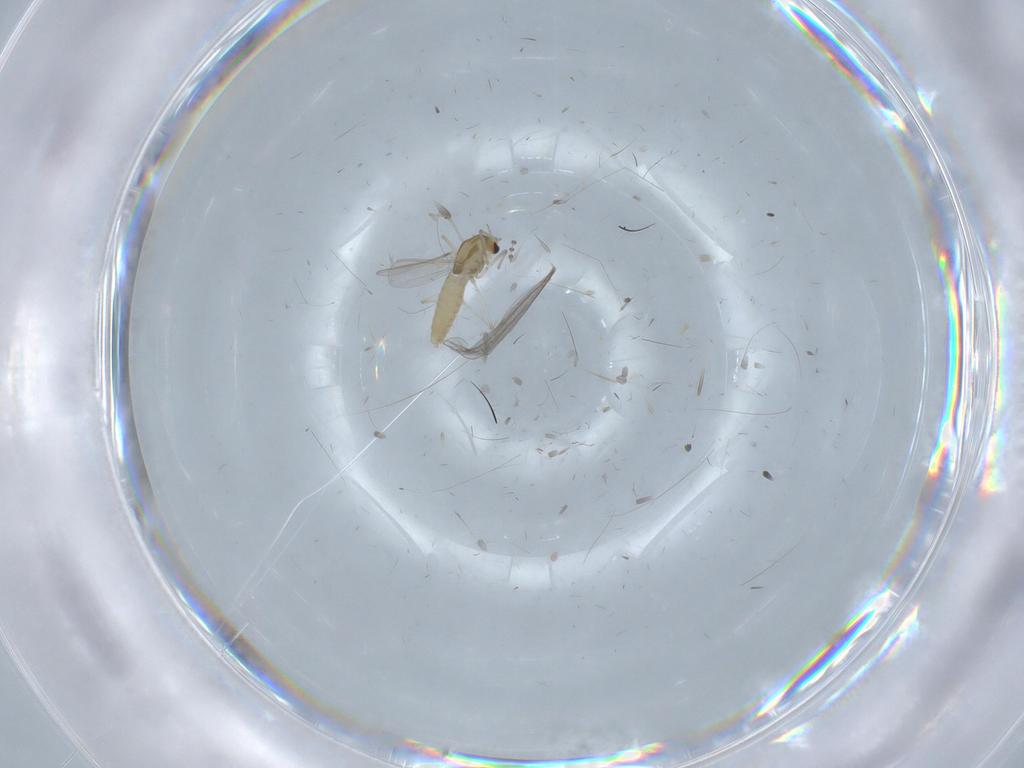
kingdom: Animalia
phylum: Arthropoda
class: Insecta
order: Diptera
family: Chironomidae
